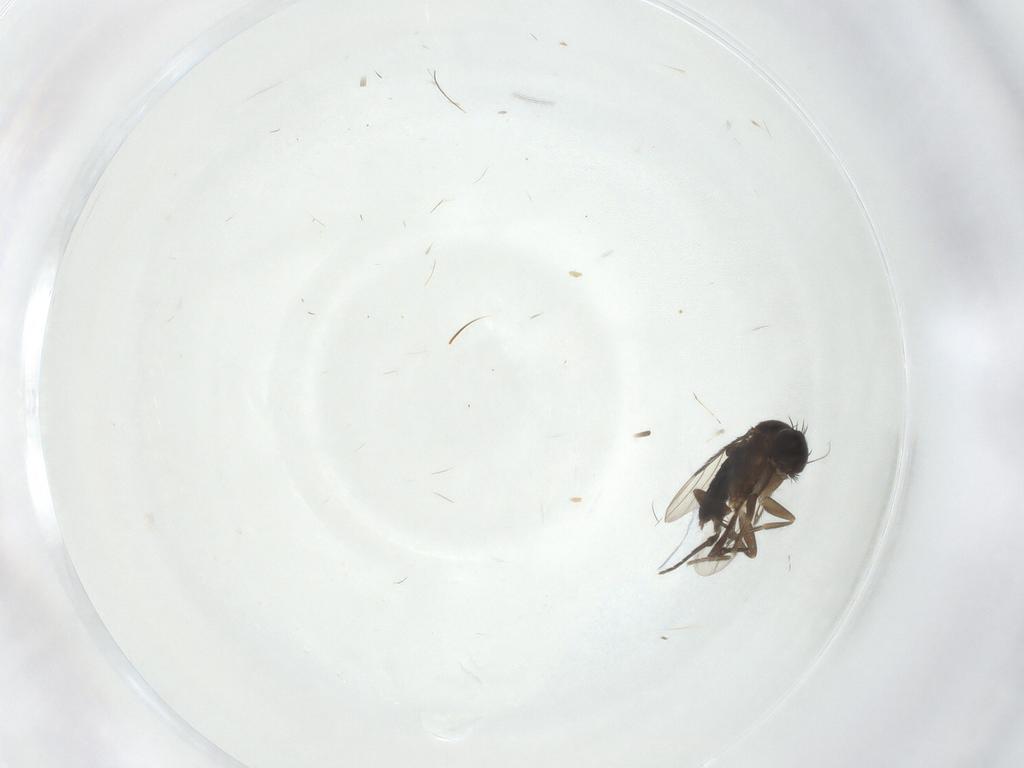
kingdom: Animalia
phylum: Arthropoda
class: Insecta
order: Diptera
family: Psychodidae
